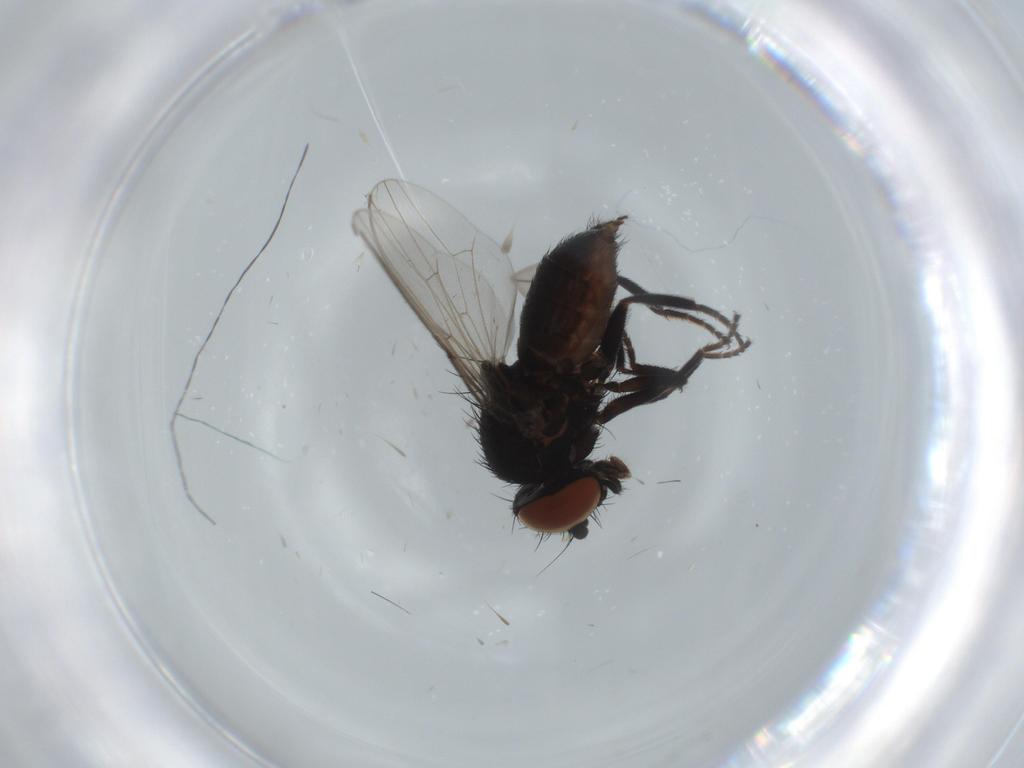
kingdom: Animalia
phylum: Arthropoda
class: Insecta
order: Diptera
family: Milichiidae
